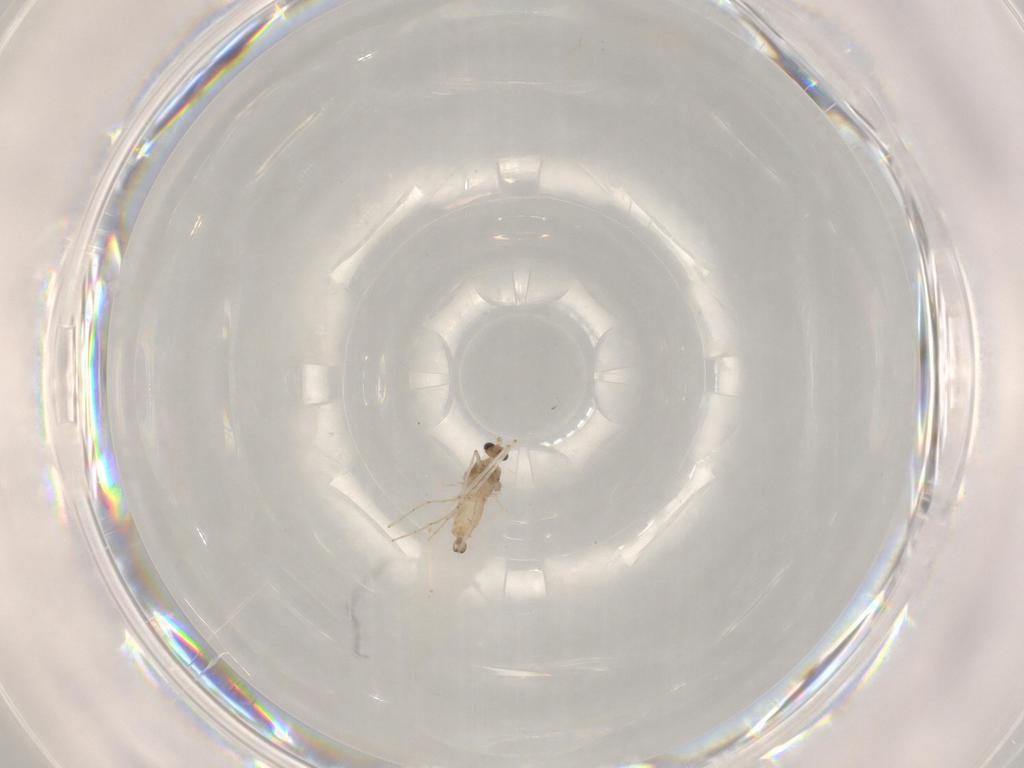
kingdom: Animalia
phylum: Arthropoda
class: Insecta
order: Diptera
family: Cecidomyiidae
